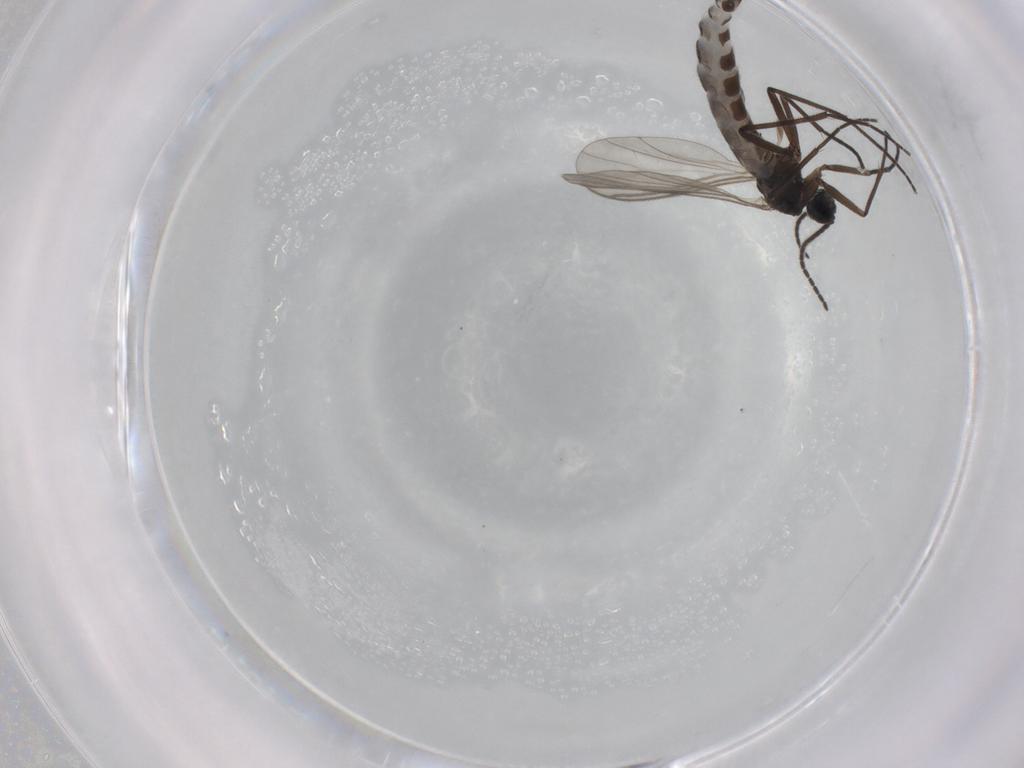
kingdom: Animalia
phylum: Arthropoda
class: Insecta
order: Diptera
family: Sciaridae
